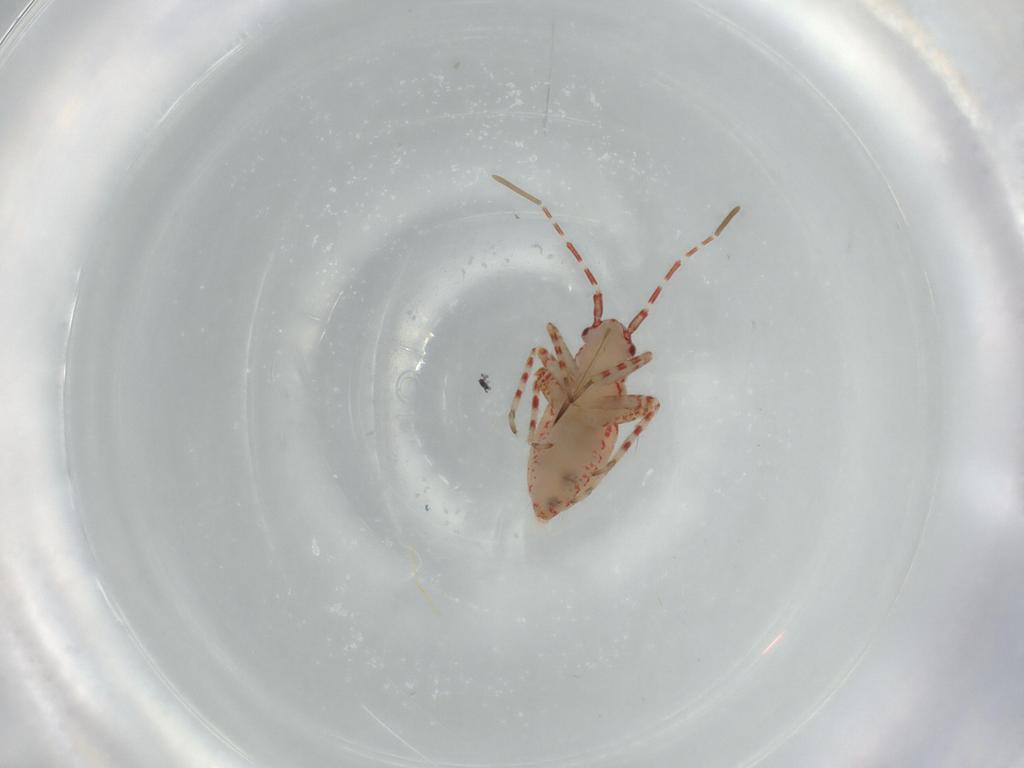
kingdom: Animalia
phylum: Arthropoda
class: Insecta
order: Hemiptera
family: Miridae
